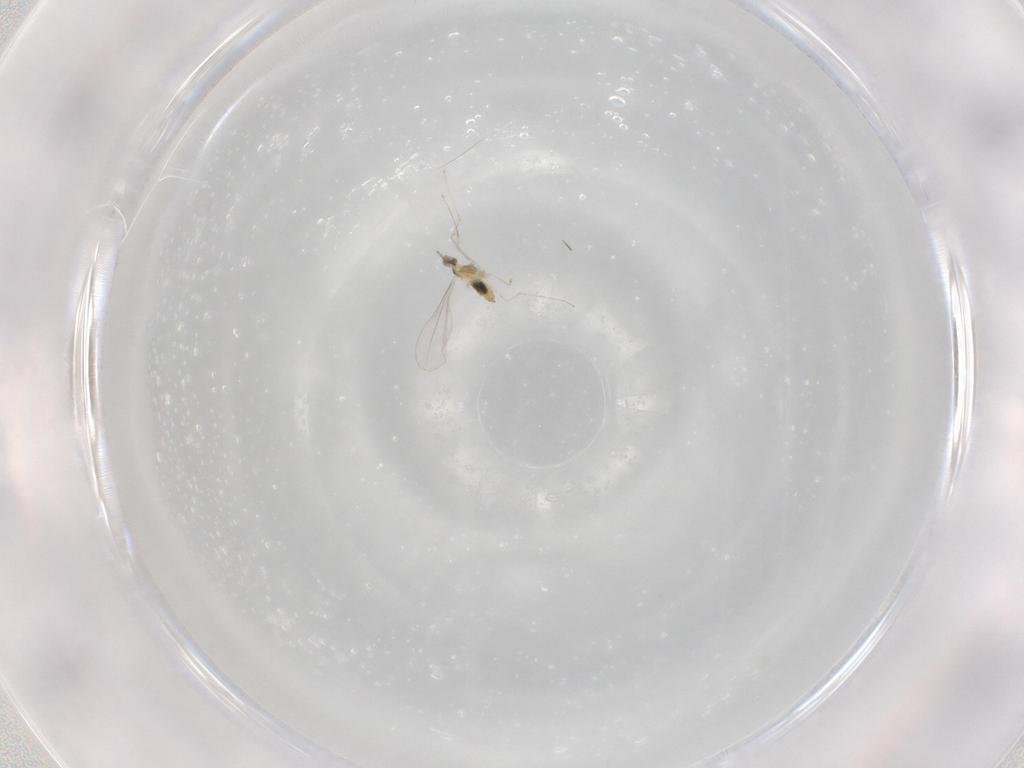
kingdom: Animalia
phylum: Arthropoda
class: Insecta
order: Diptera
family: Cecidomyiidae
